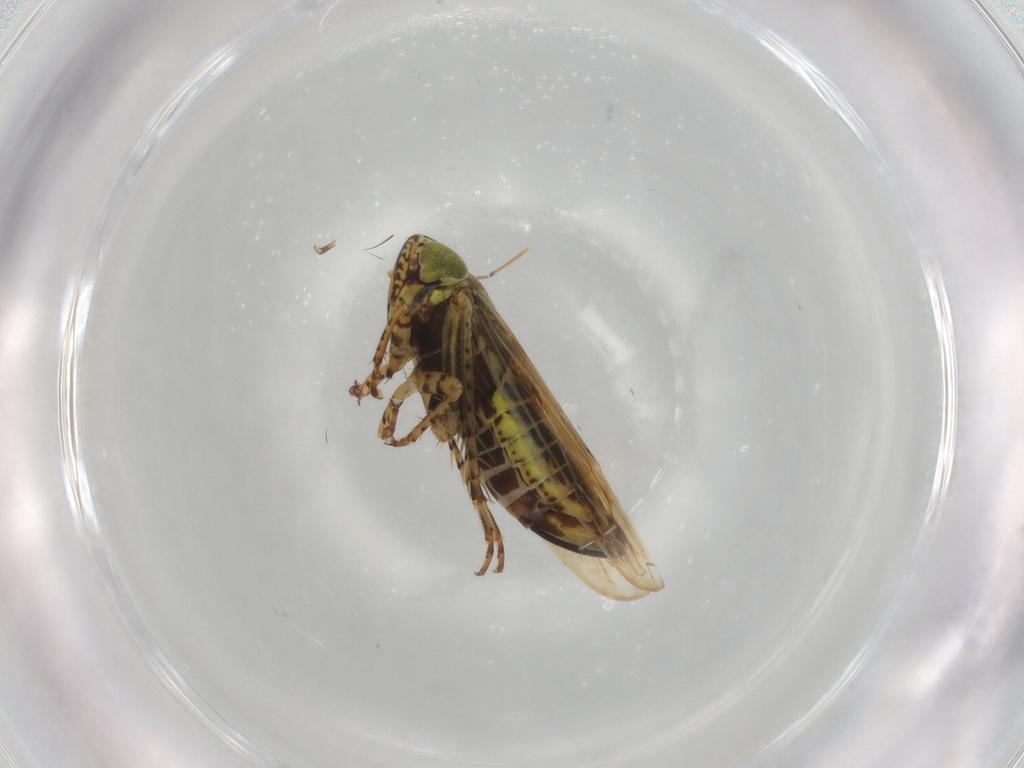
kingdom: Animalia
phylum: Arthropoda
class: Insecta
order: Hemiptera
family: Cicadellidae
